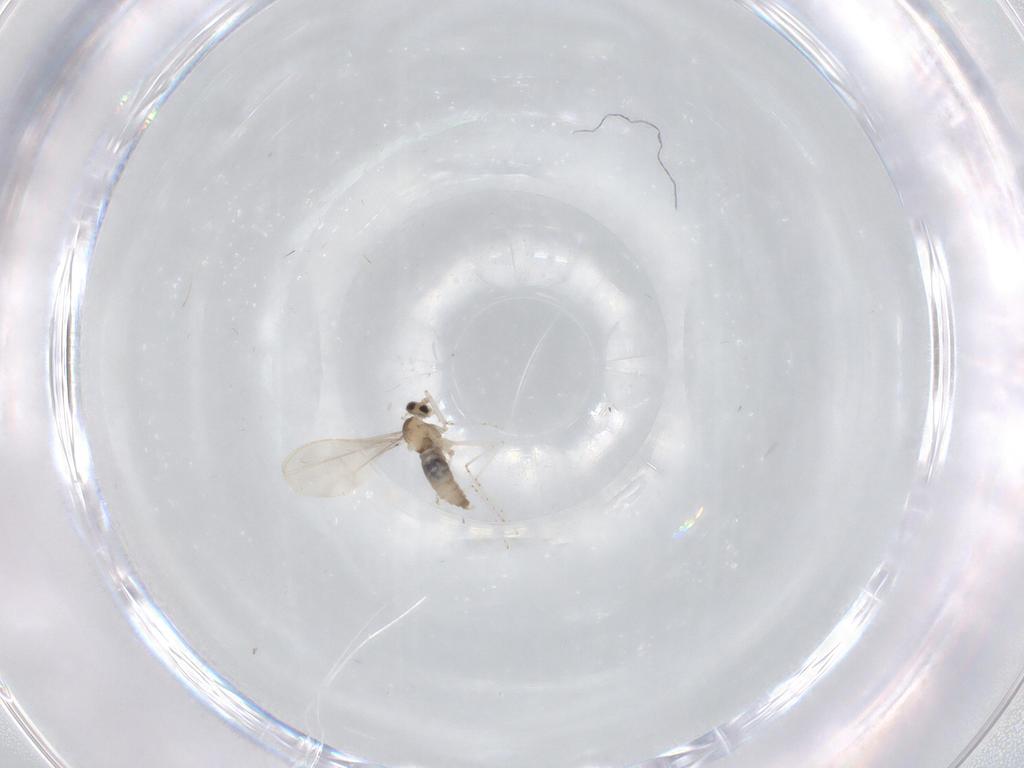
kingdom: Animalia
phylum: Arthropoda
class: Insecta
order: Diptera
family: Cecidomyiidae
